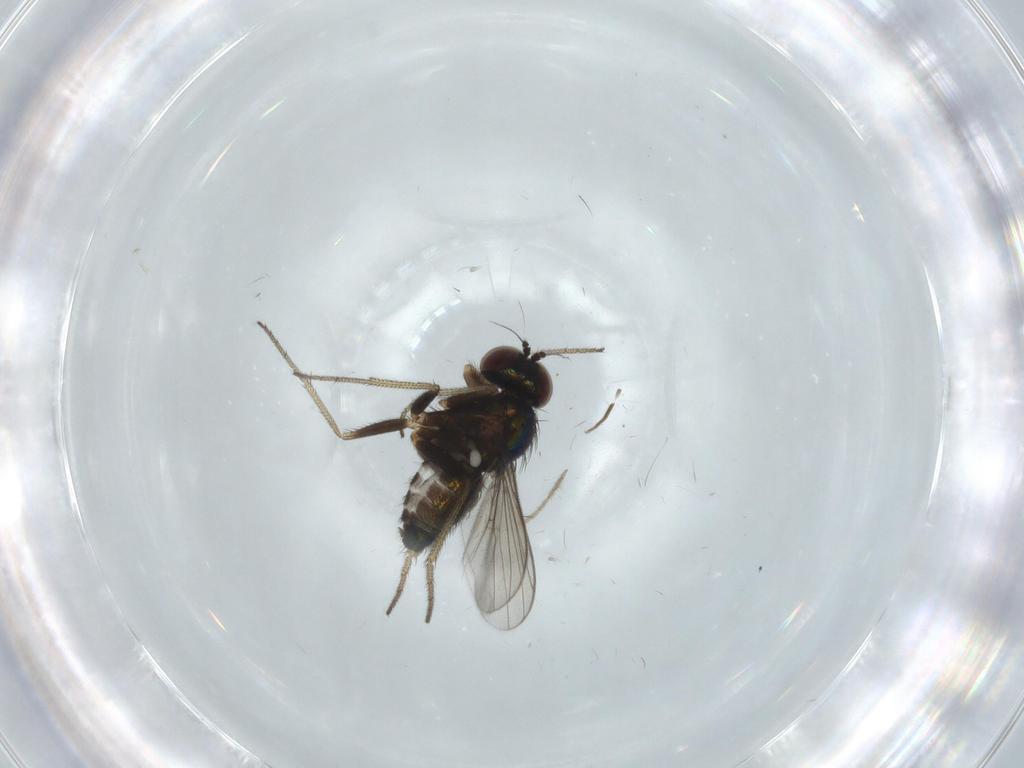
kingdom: Animalia
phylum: Arthropoda
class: Insecta
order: Diptera
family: Chironomidae
